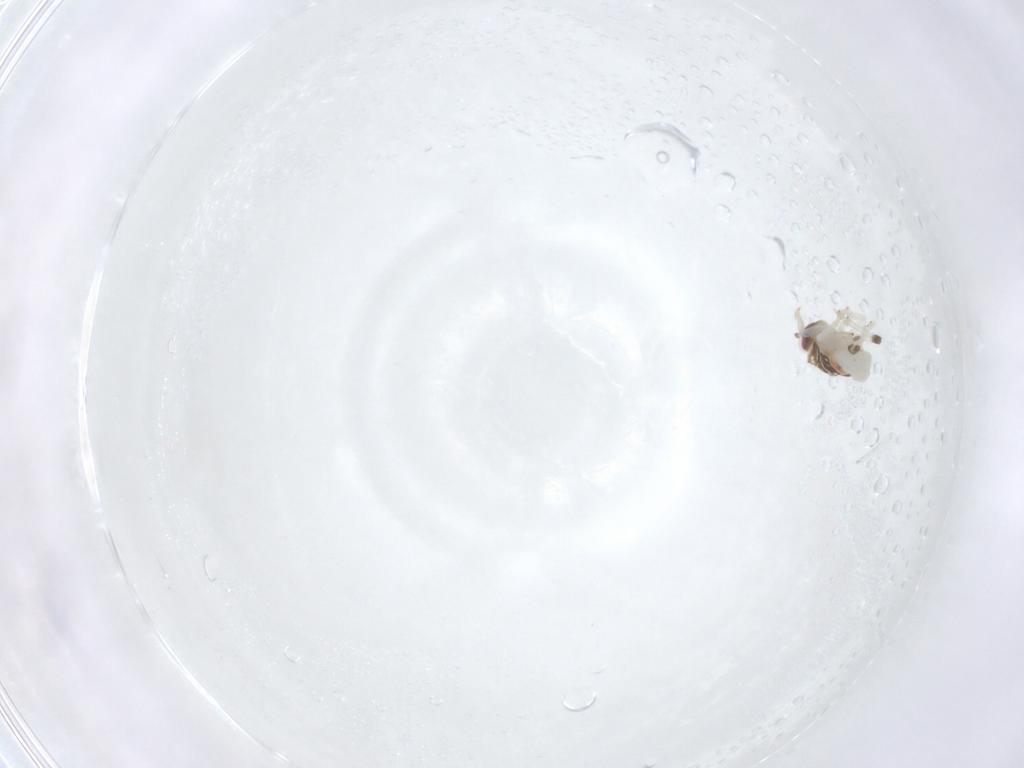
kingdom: Animalia
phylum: Arthropoda
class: Insecta
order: Hemiptera
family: Nogodinidae
